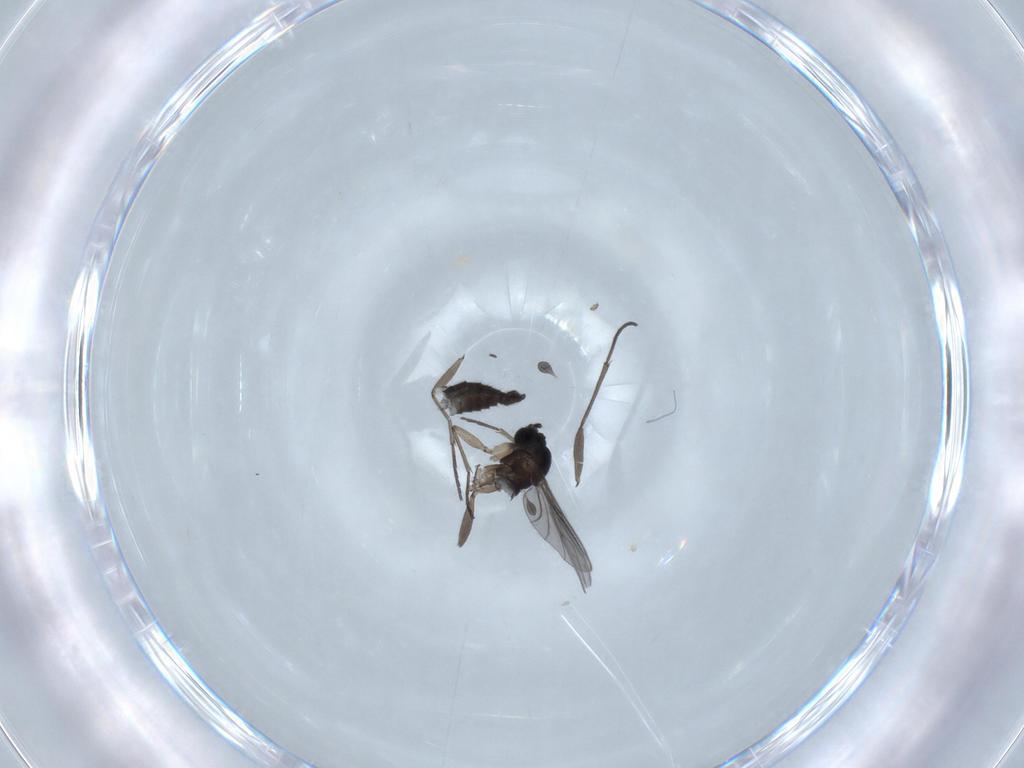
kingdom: Animalia
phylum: Arthropoda
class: Insecta
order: Diptera
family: Sciaridae
